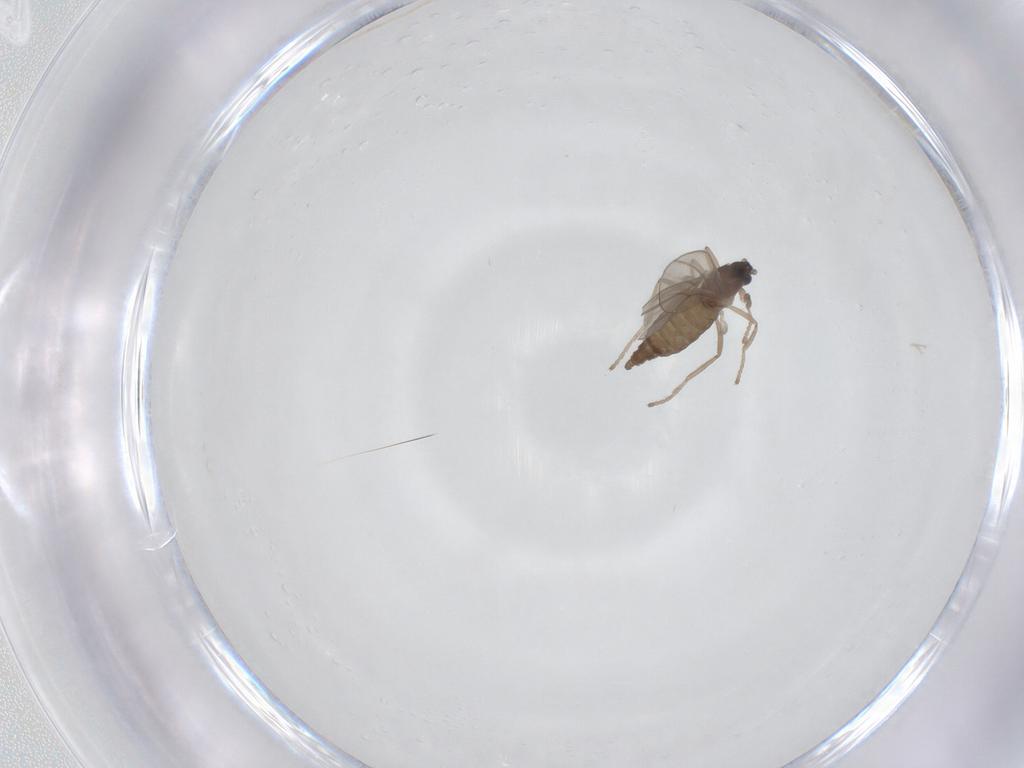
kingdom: Animalia
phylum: Arthropoda
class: Insecta
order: Diptera
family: Cecidomyiidae
